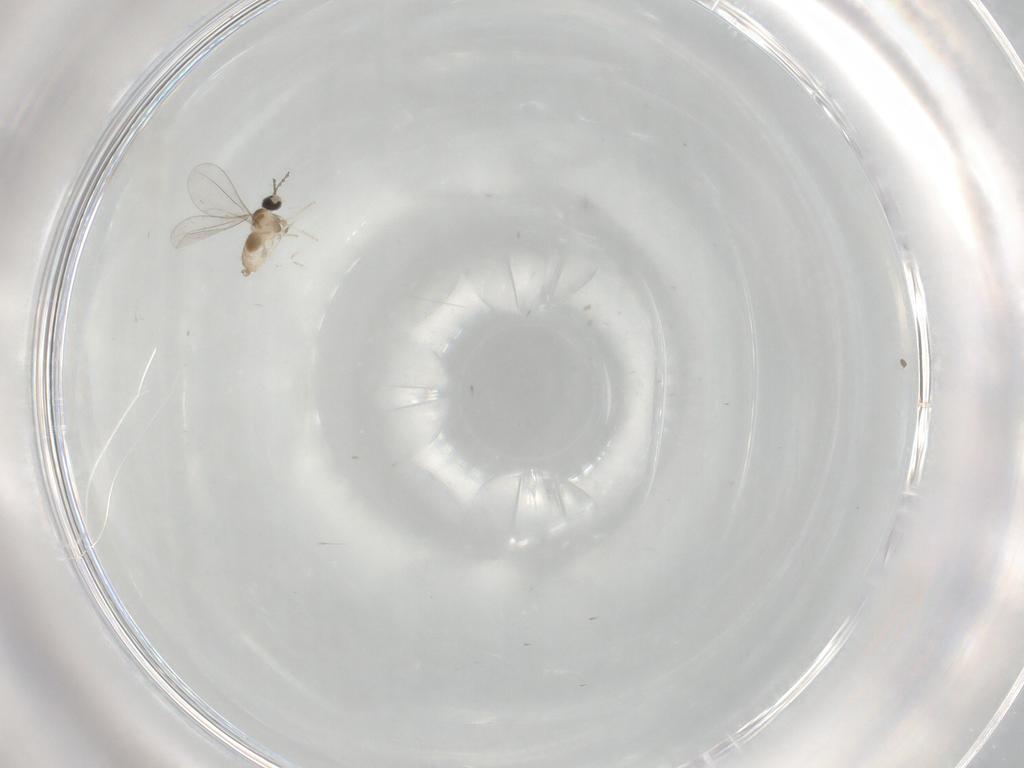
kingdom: Animalia
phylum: Arthropoda
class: Insecta
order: Diptera
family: Cecidomyiidae
